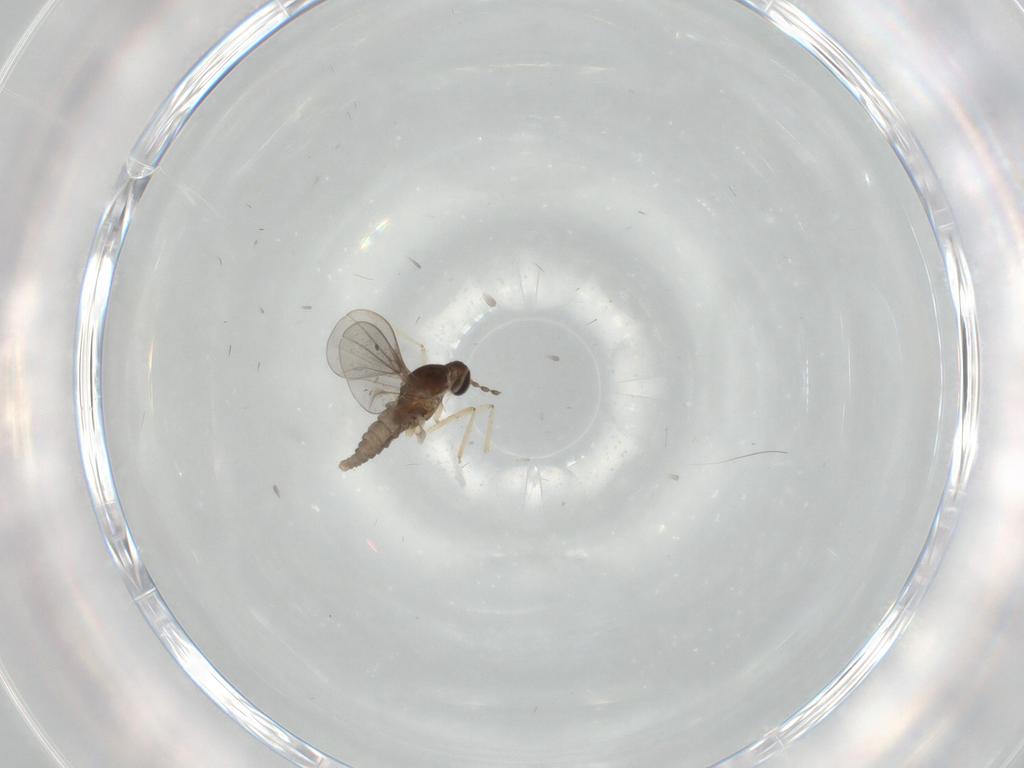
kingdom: Animalia
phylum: Arthropoda
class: Insecta
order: Diptera
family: Cecidomyiidae
